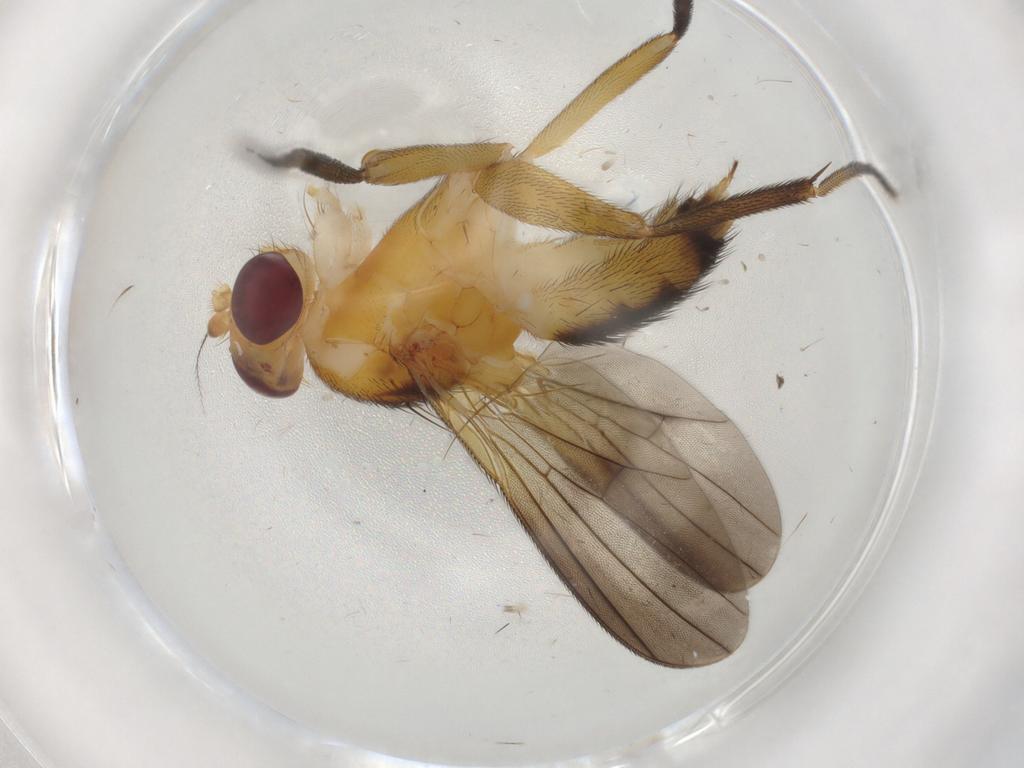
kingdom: Animalia
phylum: Arthropoda
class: Insecta
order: Diptera
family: Clusiidae
